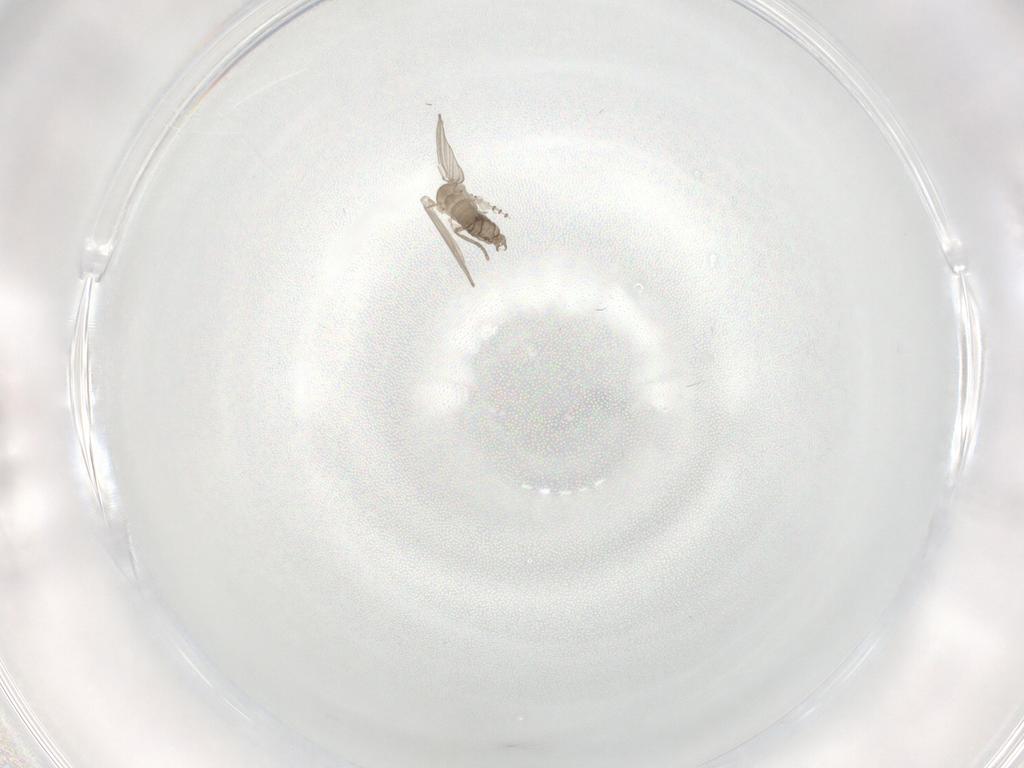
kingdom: Animalia
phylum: Arthropoda
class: Insecta
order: Diptera
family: Psychodidae
